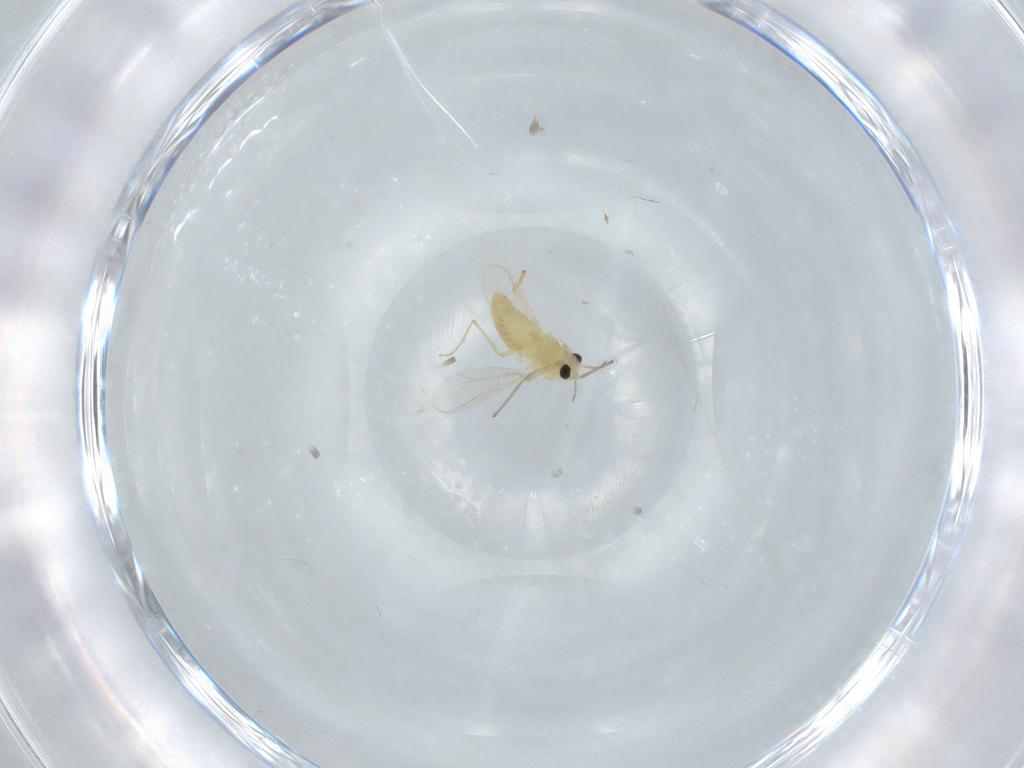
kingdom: Animalia
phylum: Arthropoda
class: Insecta
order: Diptera
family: Chironomidae
